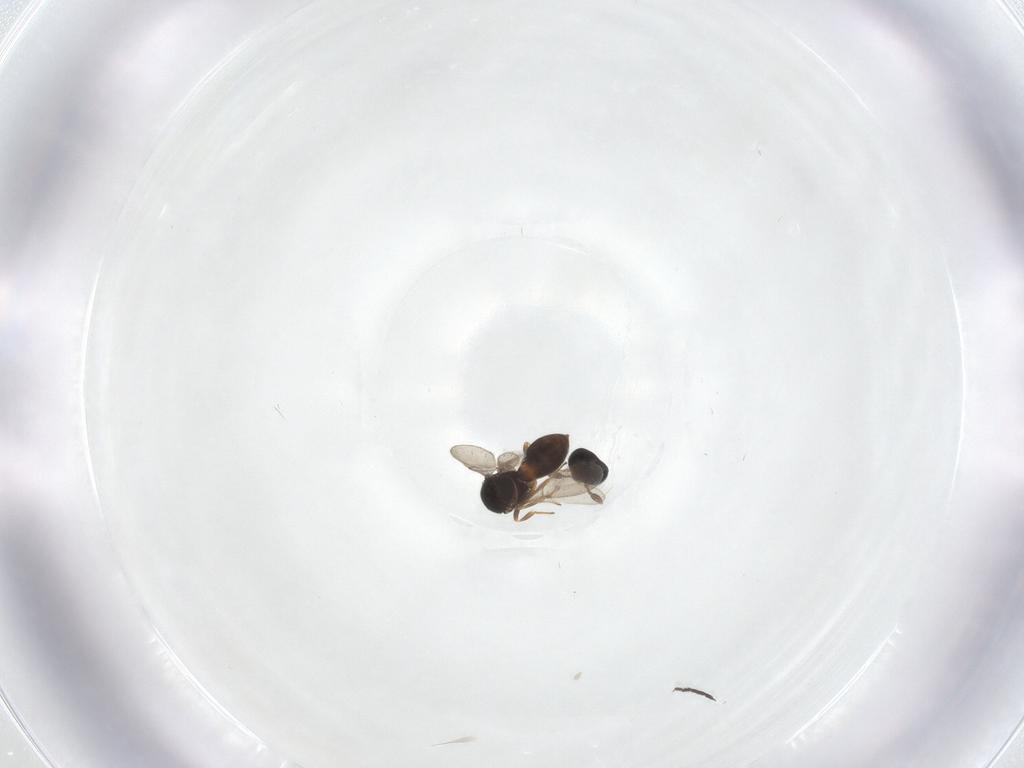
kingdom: Animalia
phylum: Arthropoda
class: Insecta
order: Hymenoptera
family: Scelionidae
